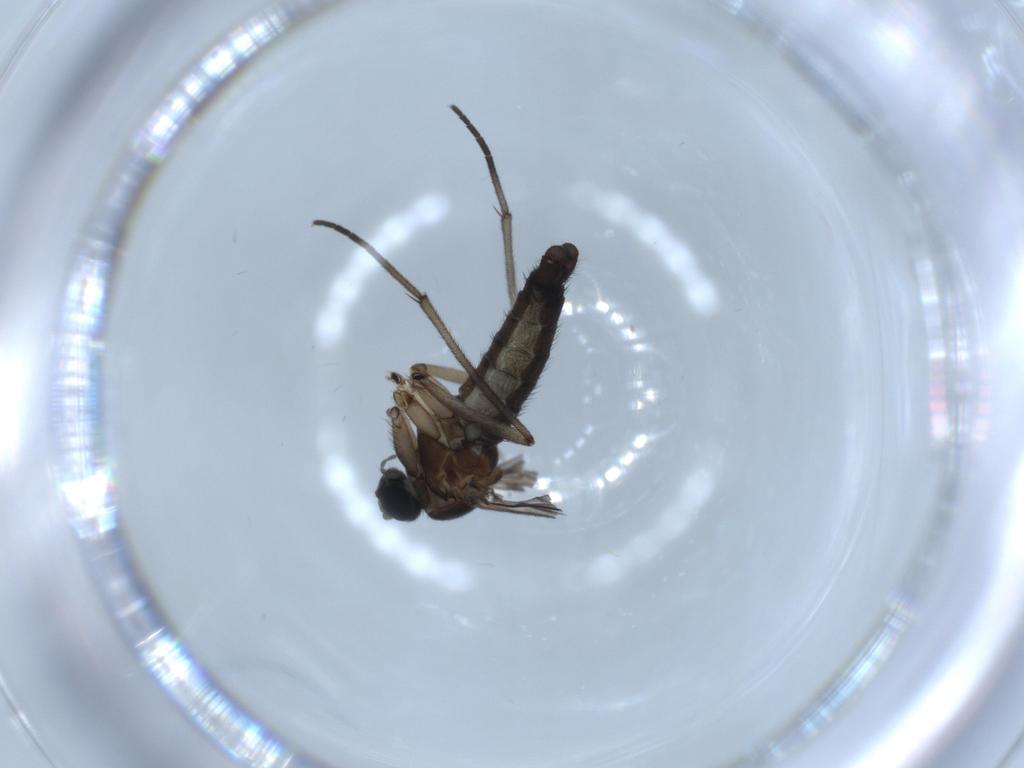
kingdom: Animalia
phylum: Arthropoda
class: Insecta
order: Diptera
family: Sciaridae
